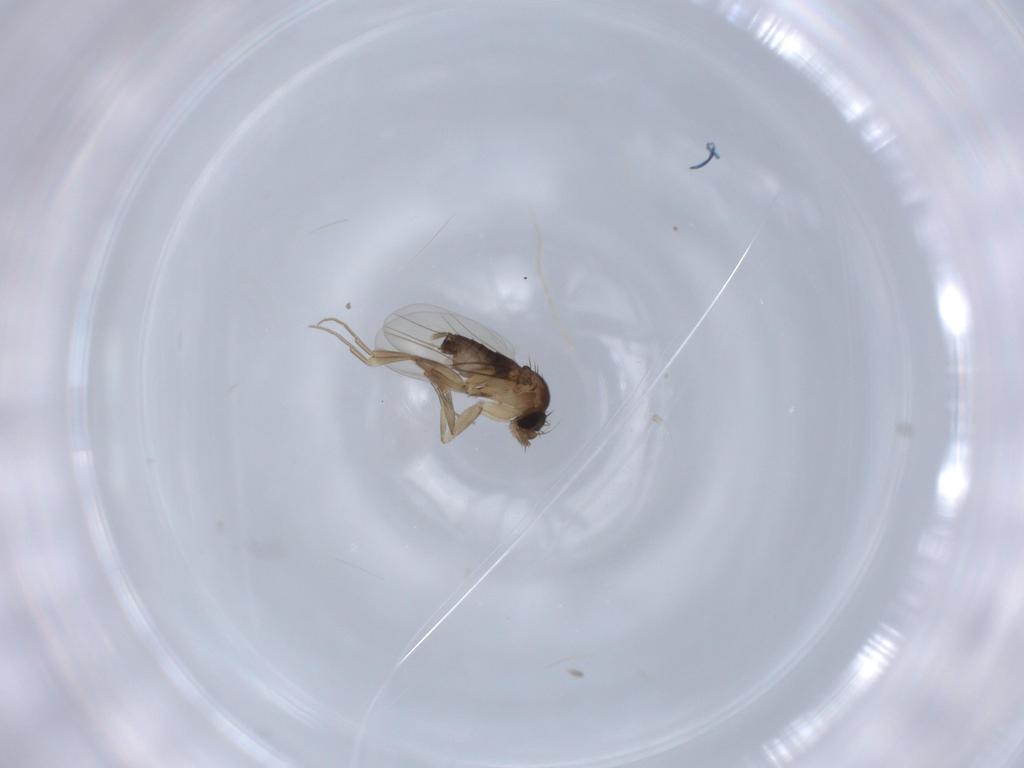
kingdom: Animalia
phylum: Arthropoda
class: Insecta
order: Diptera
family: Phoridae
